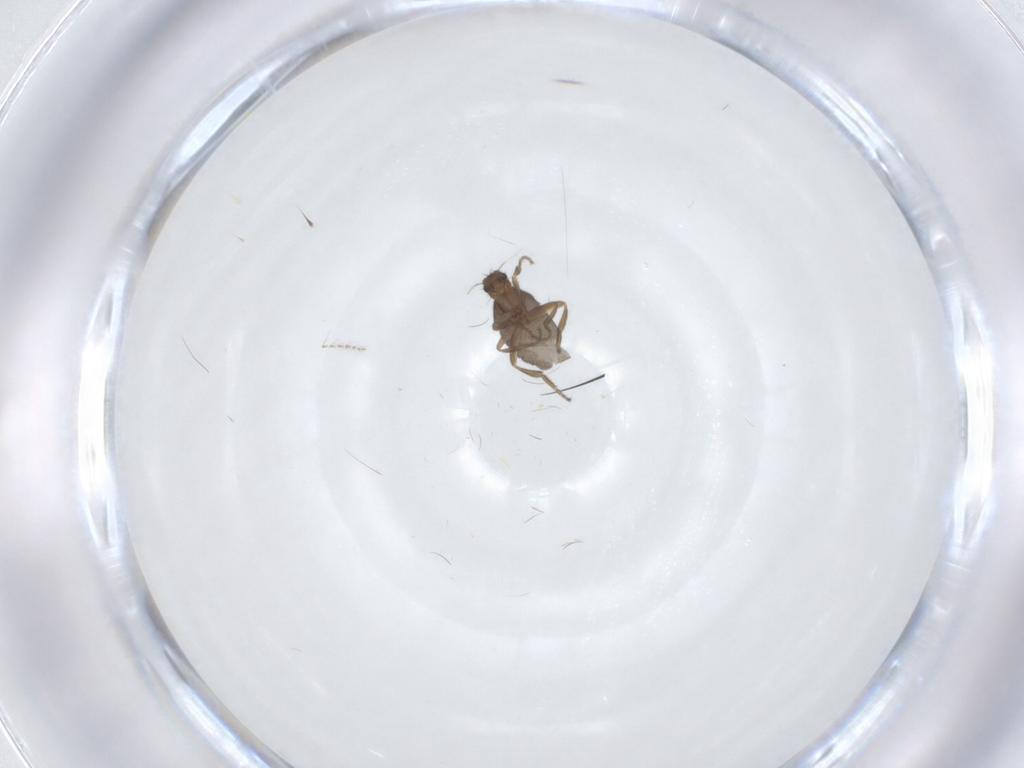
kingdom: Animalia
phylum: Arthropoda
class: Insecta
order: Diptera
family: Phoridae
